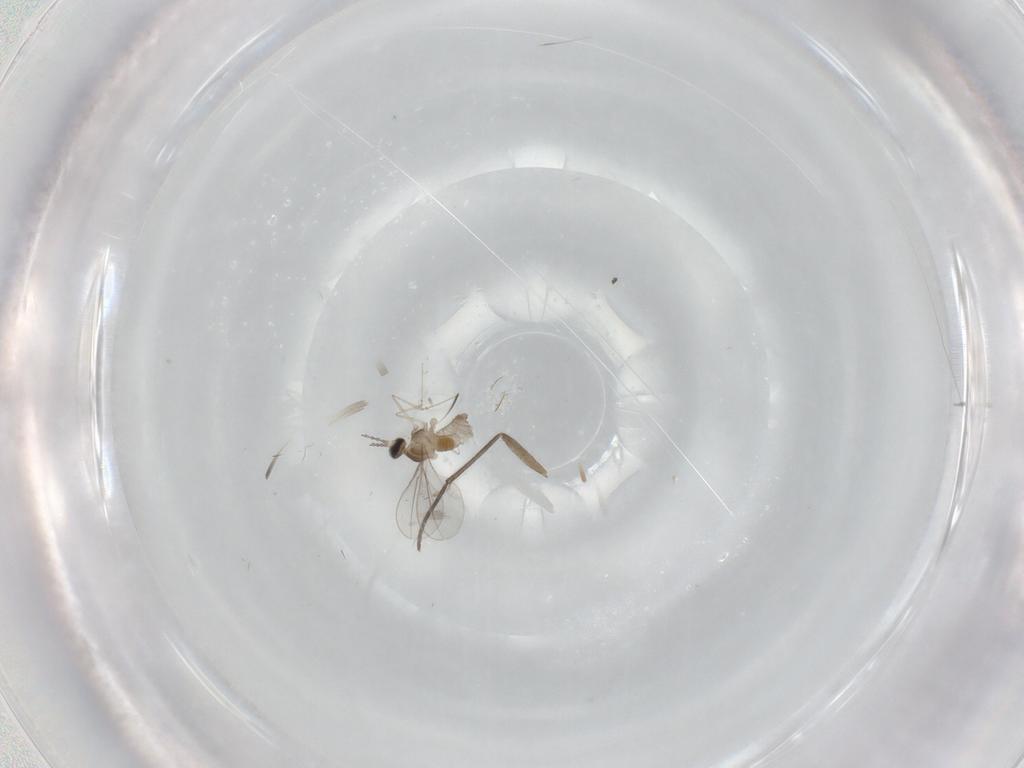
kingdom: Animalia
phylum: Arthropoda
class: Insecta
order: Diptera
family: Cecidomyiidae
